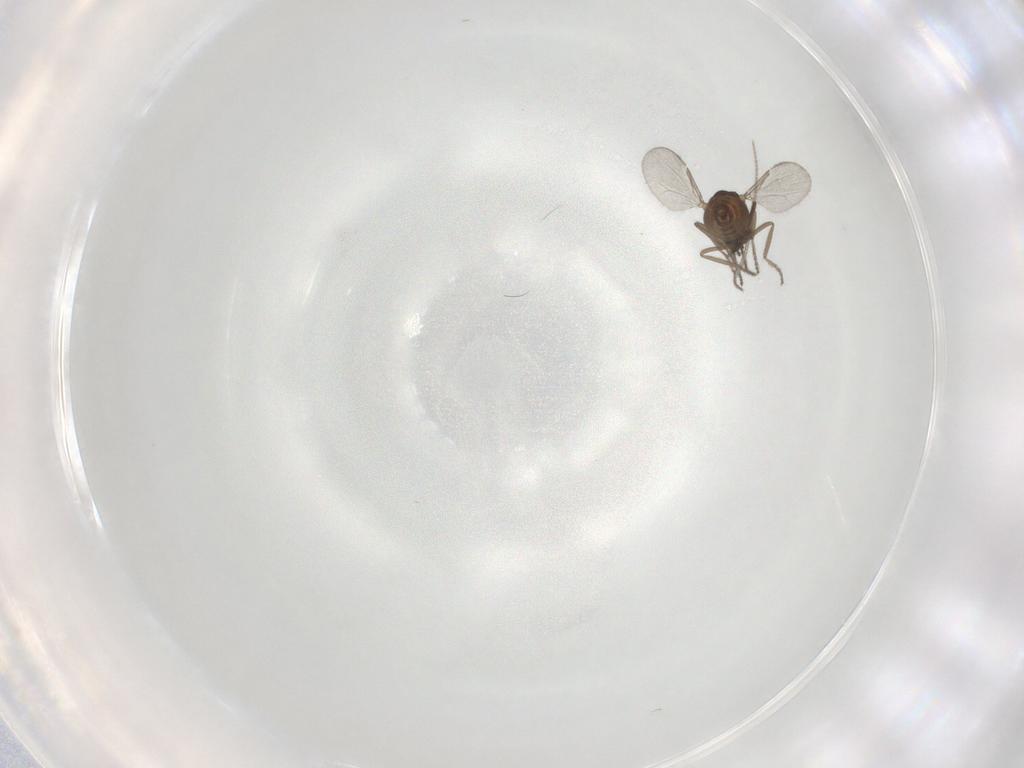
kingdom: Animalia
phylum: Arthropoda
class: Insecta
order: Diptera
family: Ceratopogonidae
